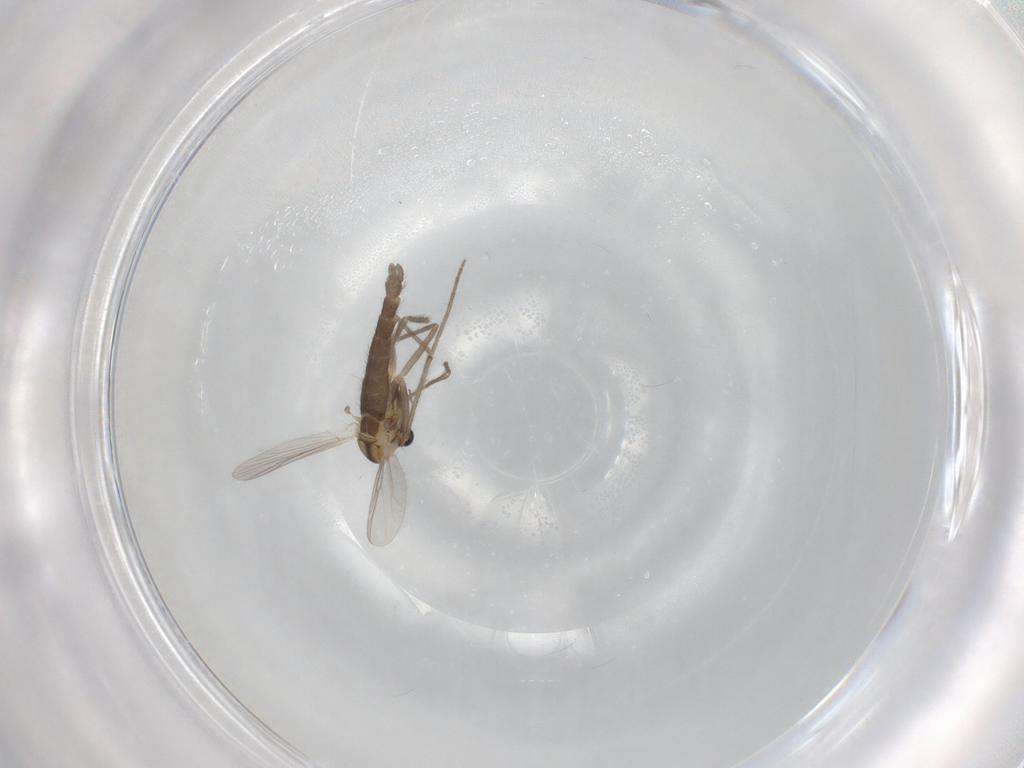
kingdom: Animalia
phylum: Arthropoda
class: Insecta
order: Diptera
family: Chironomidae
